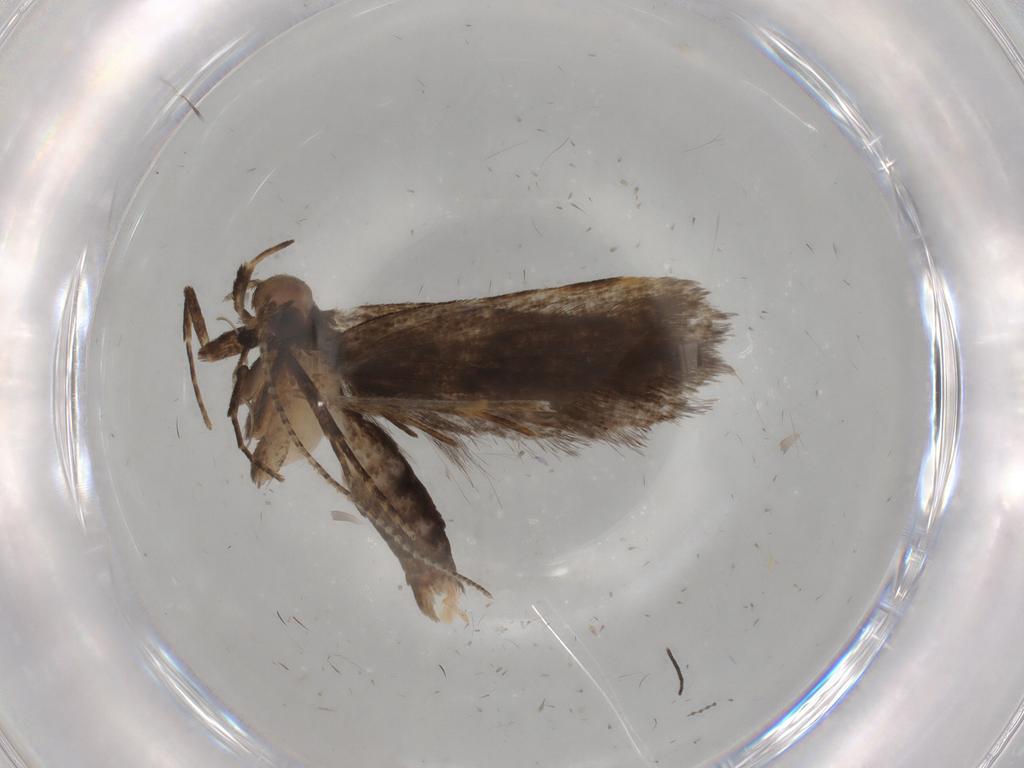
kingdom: Animalia
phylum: Arthropoda
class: Insecta
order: Lepidoptera
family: Gelechiidae
